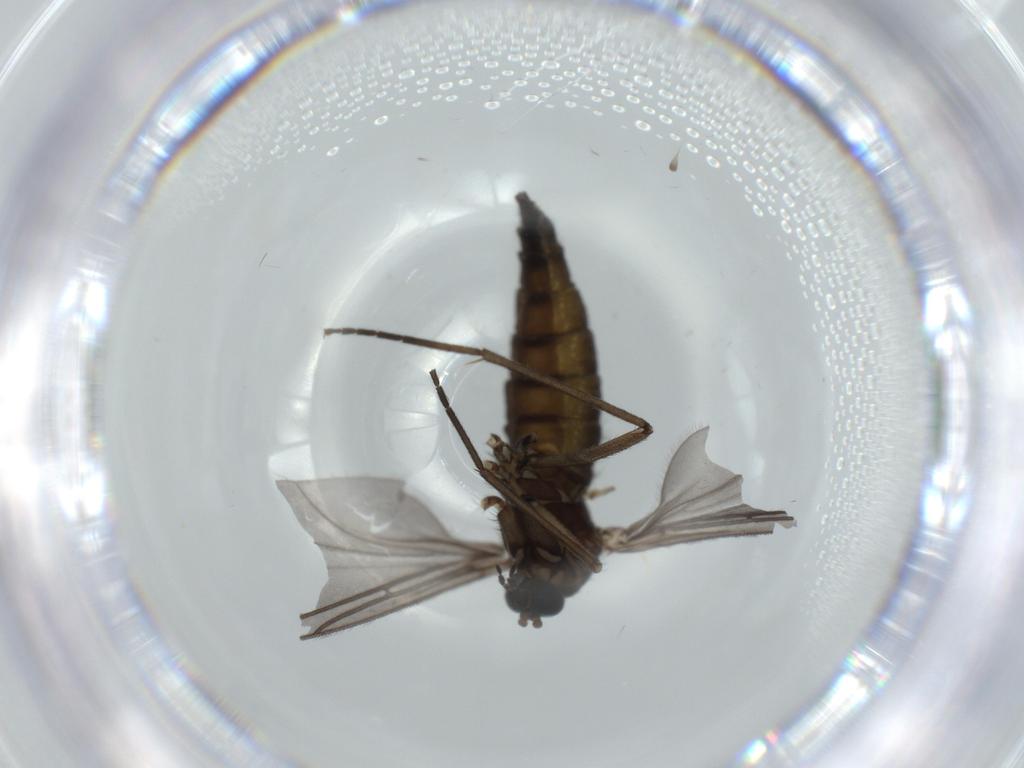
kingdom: Animalia
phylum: Arthropoda
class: Insecta
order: Diptera
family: Sciaridae
